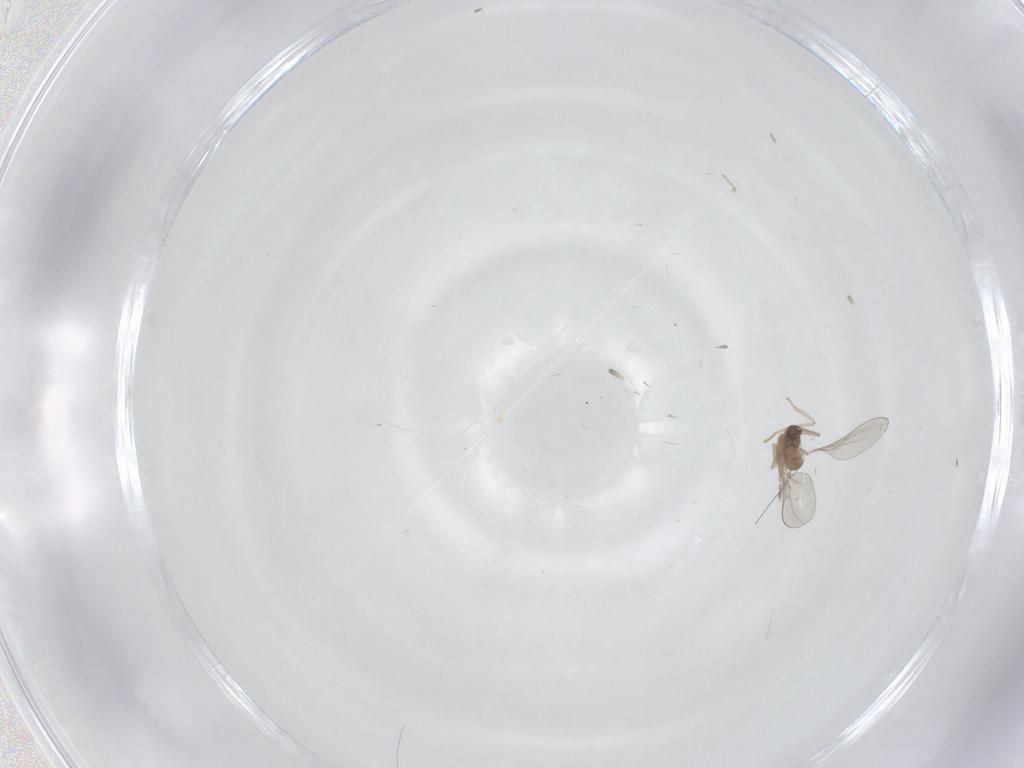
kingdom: Animalia
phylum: Arthropoda
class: Insecta
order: Diptera
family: Cecidomyiidae
